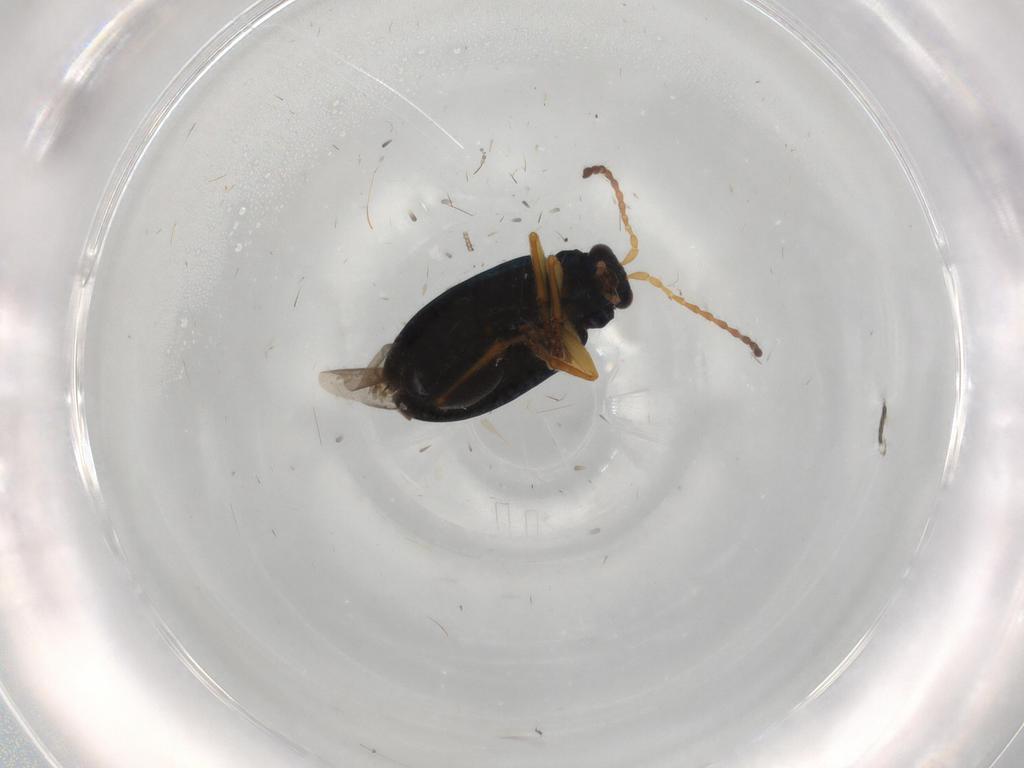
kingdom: Animalia
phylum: Arthropoda
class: Insecta
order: Coleoptera
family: Chrysomelidae
